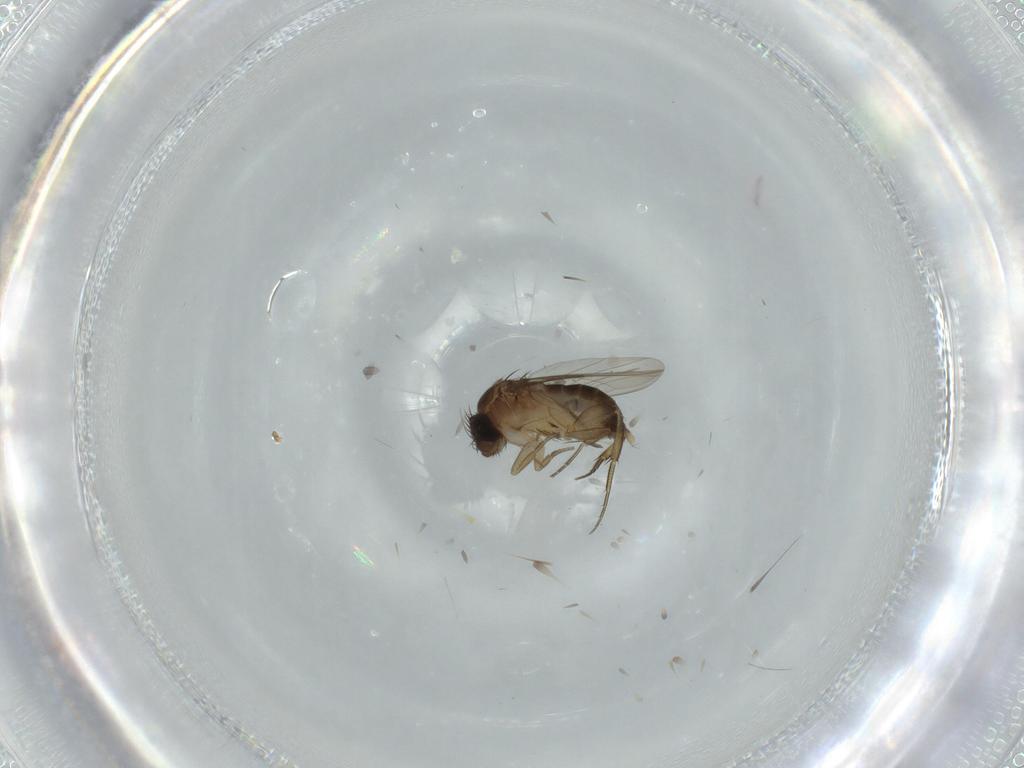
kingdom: Animalia
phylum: Arthropoda
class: Insecta
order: Diptera
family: Phoridae
